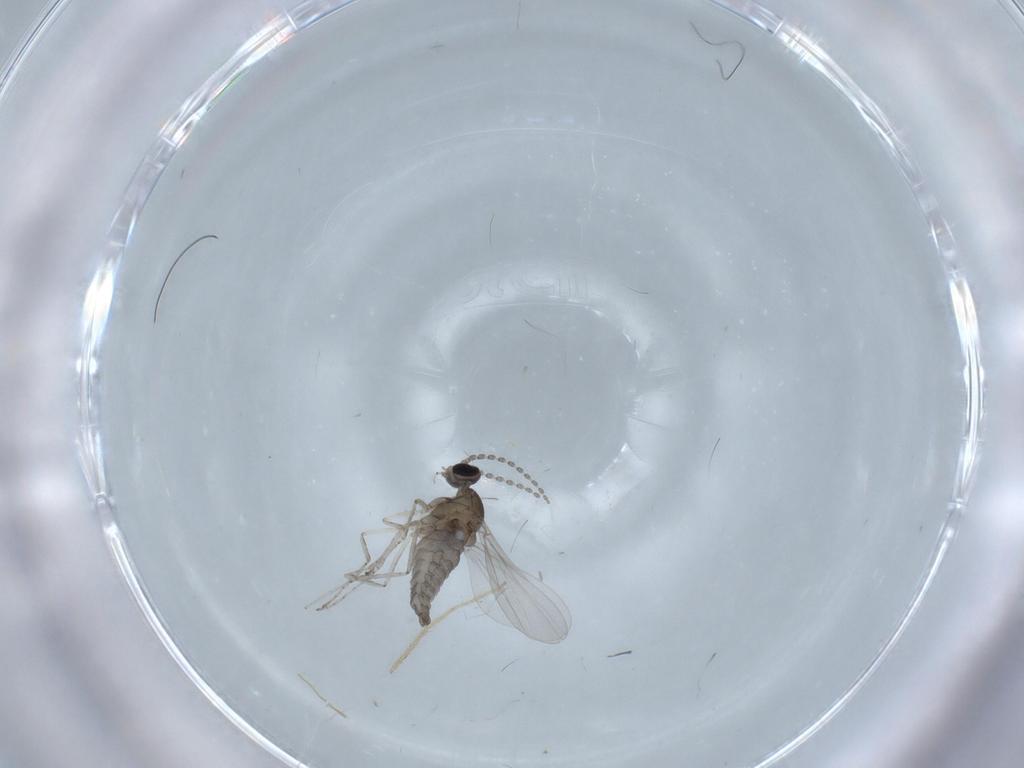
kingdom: Animalia
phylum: Arthropoda
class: Insecta
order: Diptera
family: Cecidomyiidae
